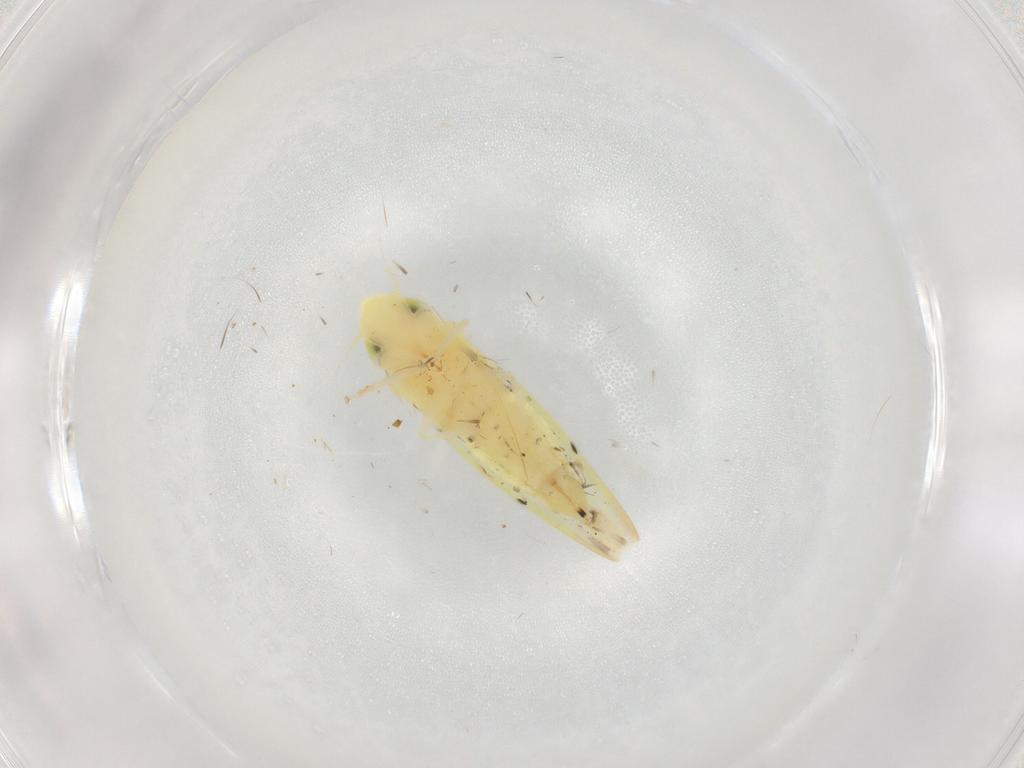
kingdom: Animalia
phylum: Arthropoda
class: Insecta
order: Hemiptera
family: Cicadellidae
